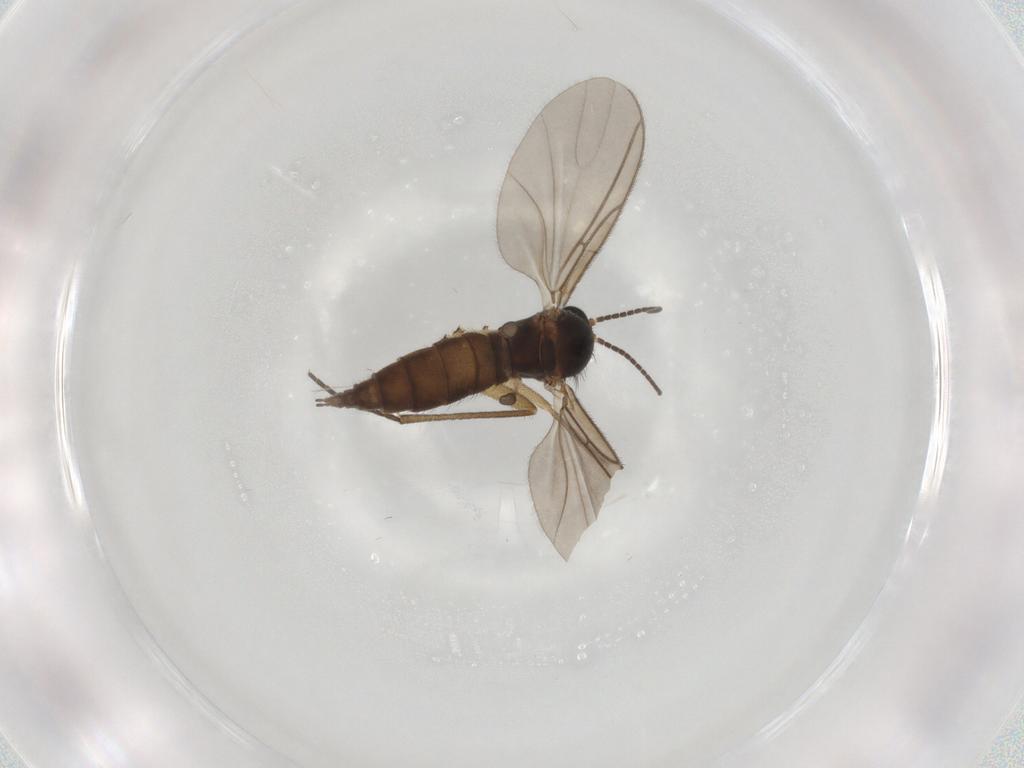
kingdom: Animalia
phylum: Arthropoda
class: Insecta
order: Diptera
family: Sciaridae
